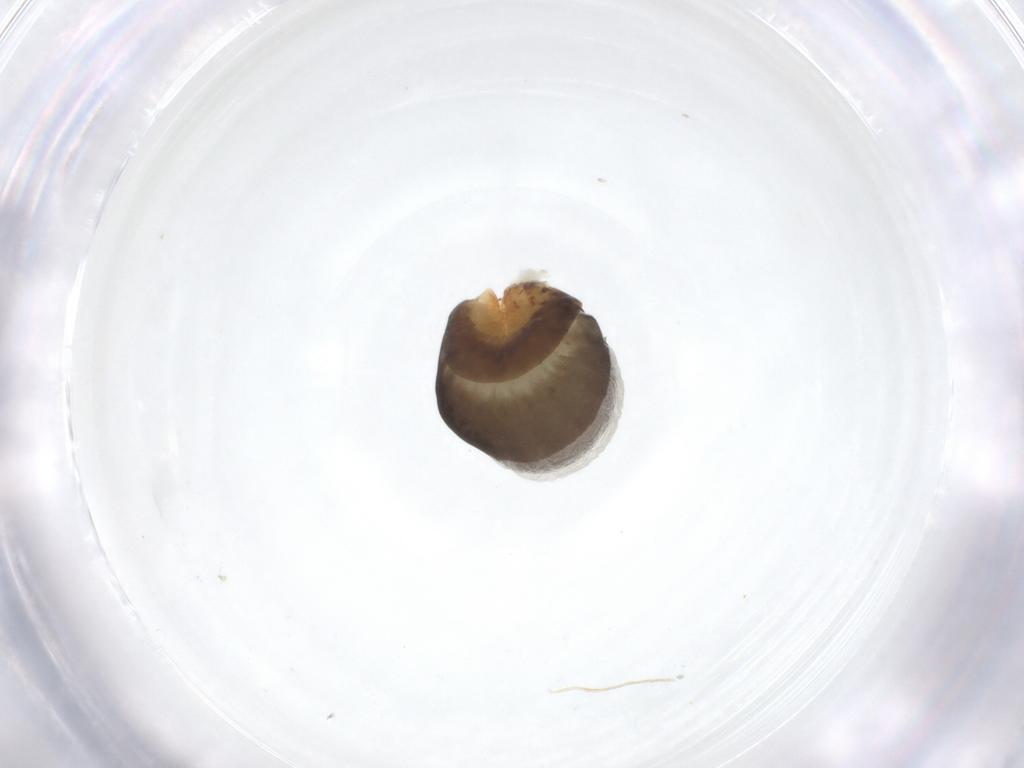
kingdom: Animalia
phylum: Arthropoda
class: Insecta
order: Hymenoptera
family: Dryinidae
